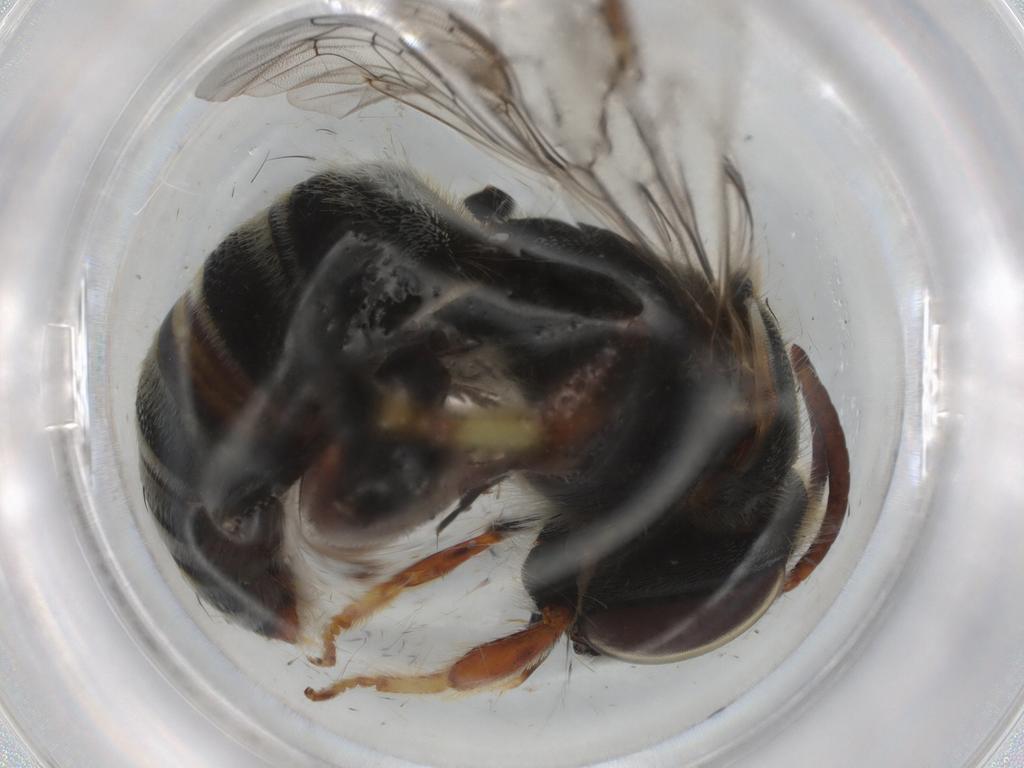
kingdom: Animalia
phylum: Arthropoda
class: Insecta
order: Hymenoptera
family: Halictidae
